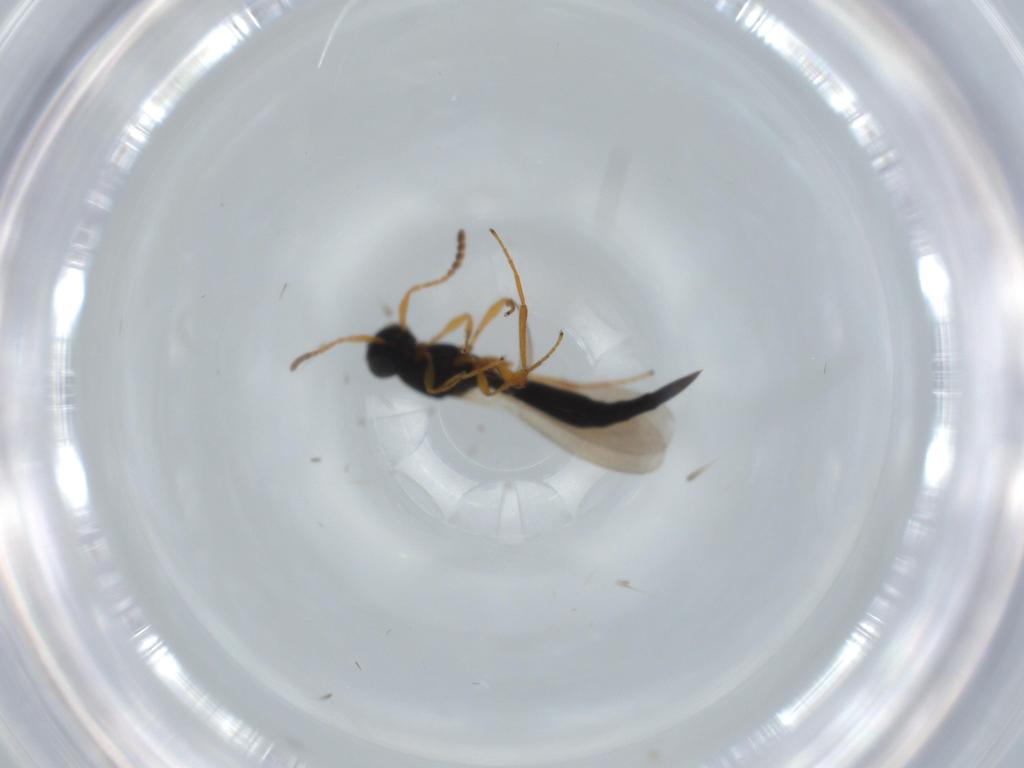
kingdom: Animalia
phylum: Arthropoda
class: Insecta
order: Hymenoptera
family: Platygastridae
